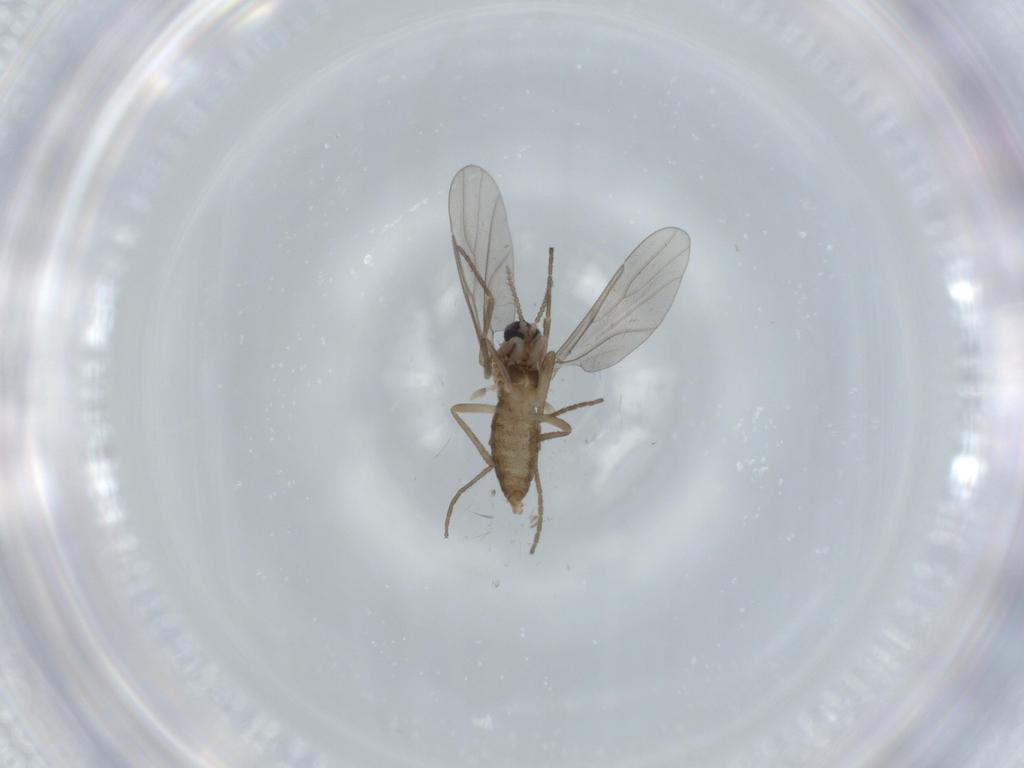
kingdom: Animalia
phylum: Arthropoda
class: Insecta
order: Diptera
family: Cecidomyiidae
